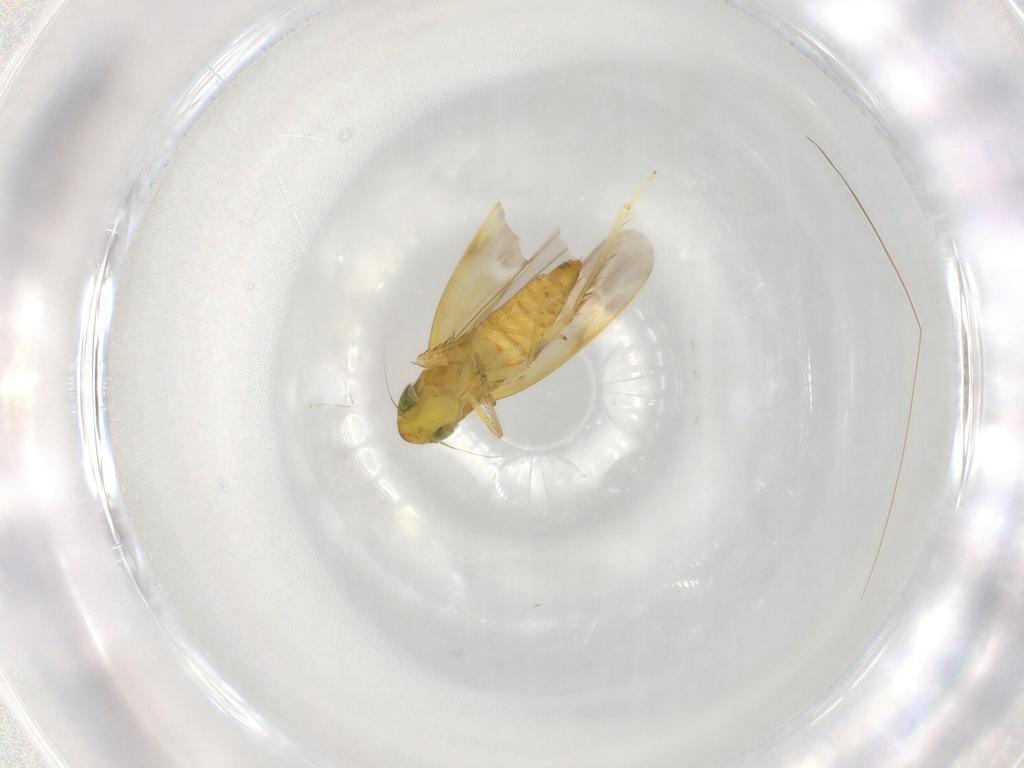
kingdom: Animalia
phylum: Arthropoda
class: Insecta
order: Hemiptera
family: Cicadellidae
